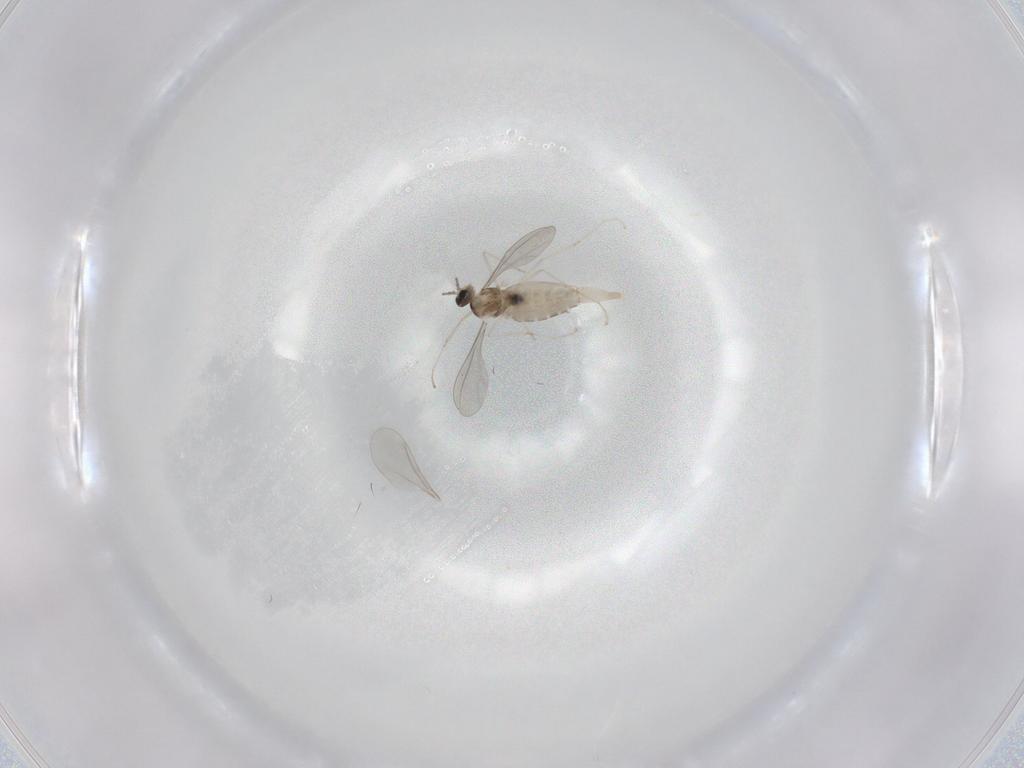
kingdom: Animalia
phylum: Arthropoda
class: Insecta
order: Diptera
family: Cecidomyiidae
